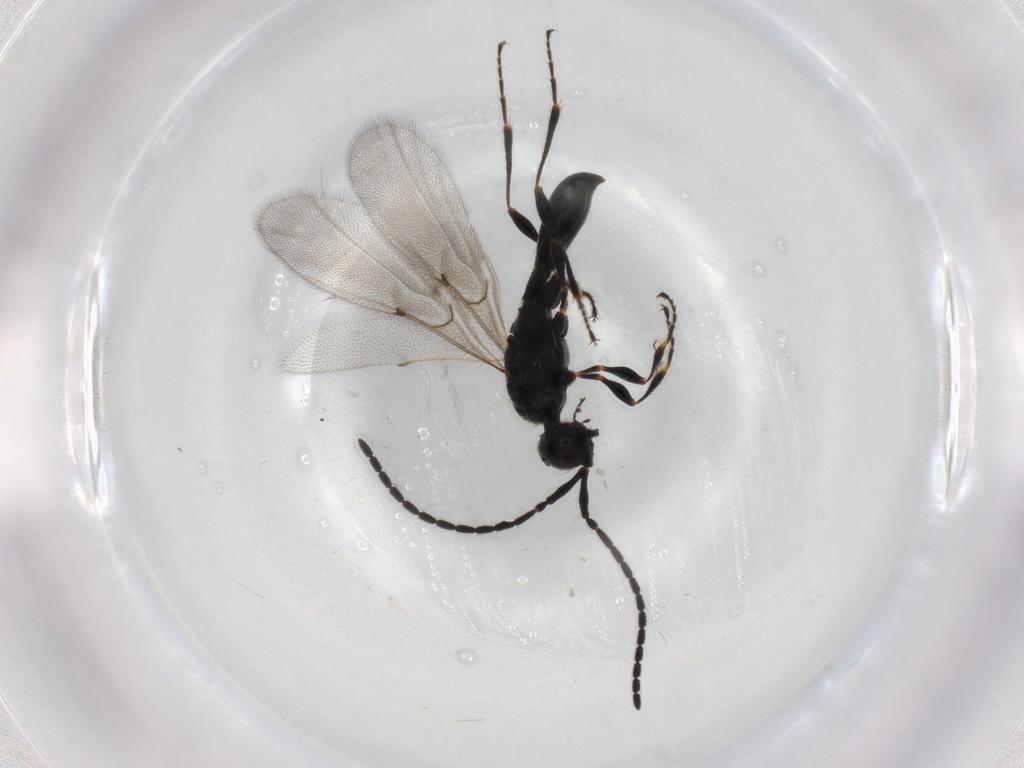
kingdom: Animalia
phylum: Arthropoda
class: Insecta
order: Hymenoptera
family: Diapriidae
